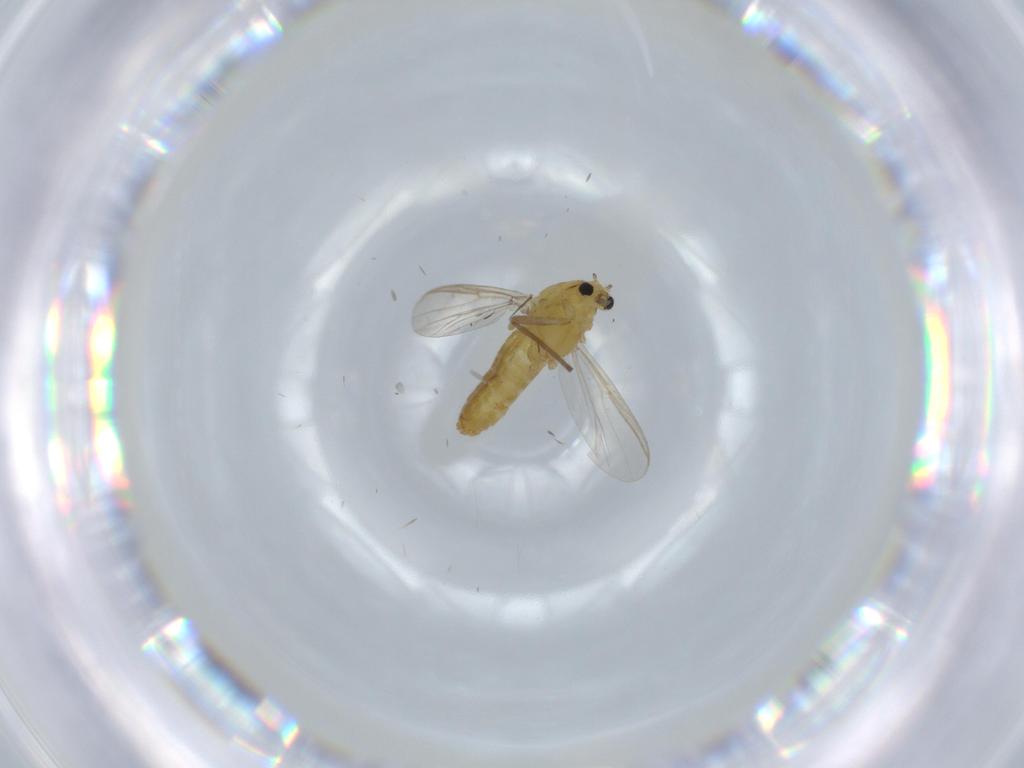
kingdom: Animalia
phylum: Arthropoda
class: Insecta
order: Diptera
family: Chironomidae
